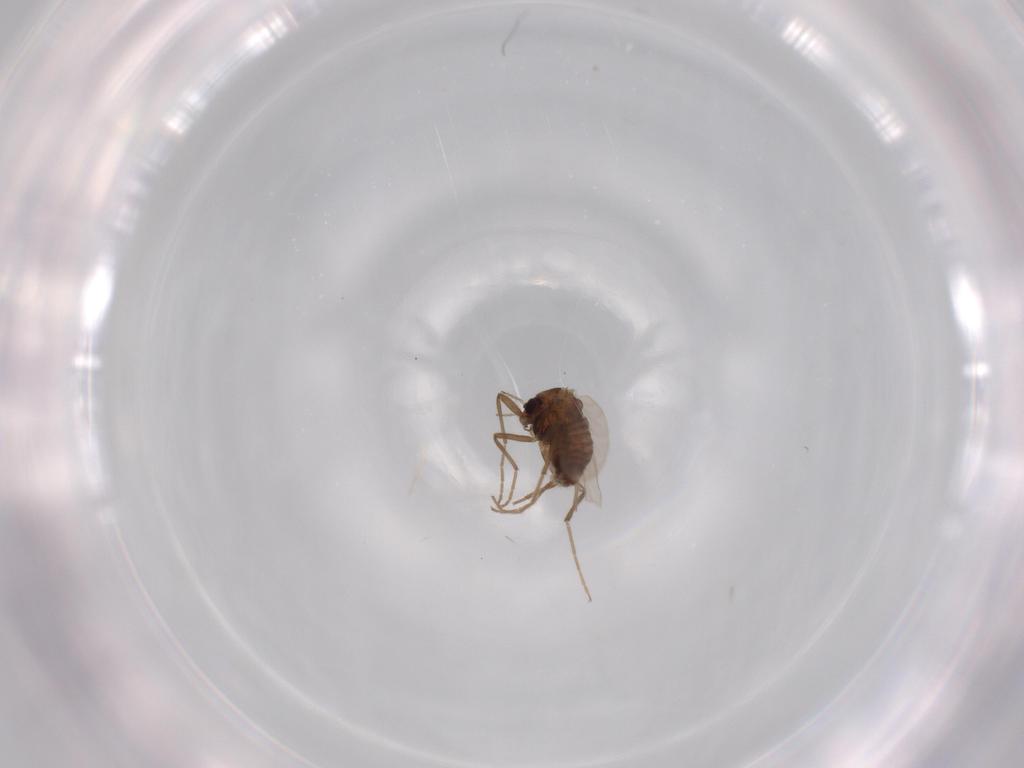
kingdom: Animalia
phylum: Arthropoda
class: Insecta
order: Diptera
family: Chironomidae
